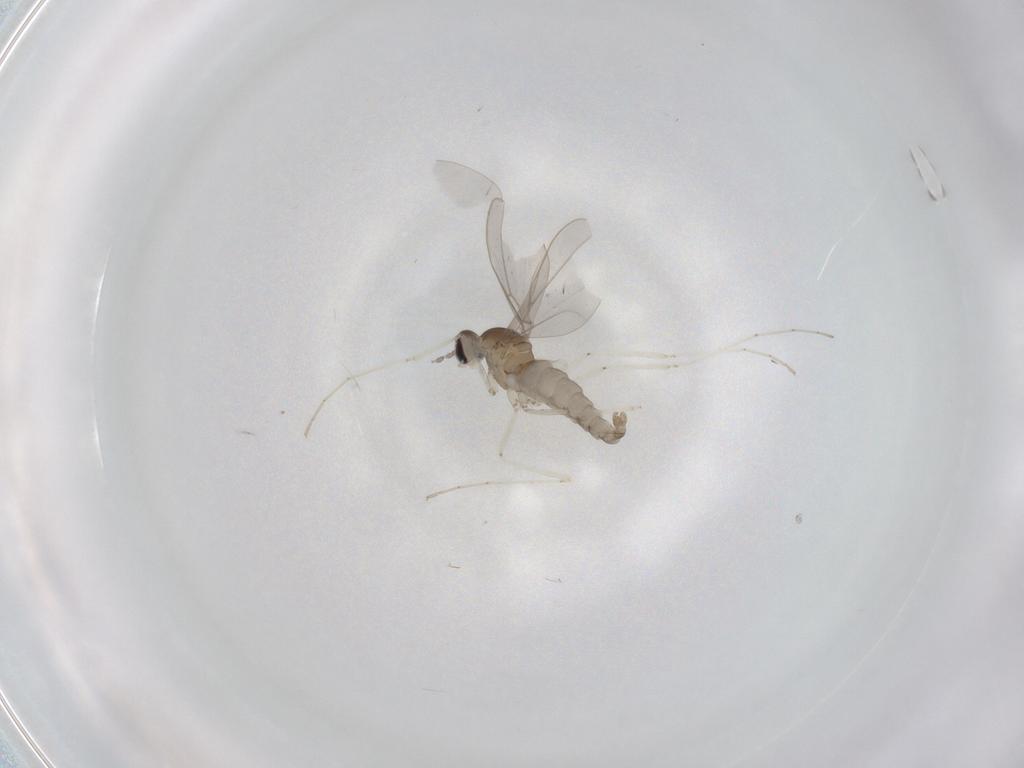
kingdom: Animalia
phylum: Arthropoda
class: Insecta
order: Diptera
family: Cecidomyiidae
